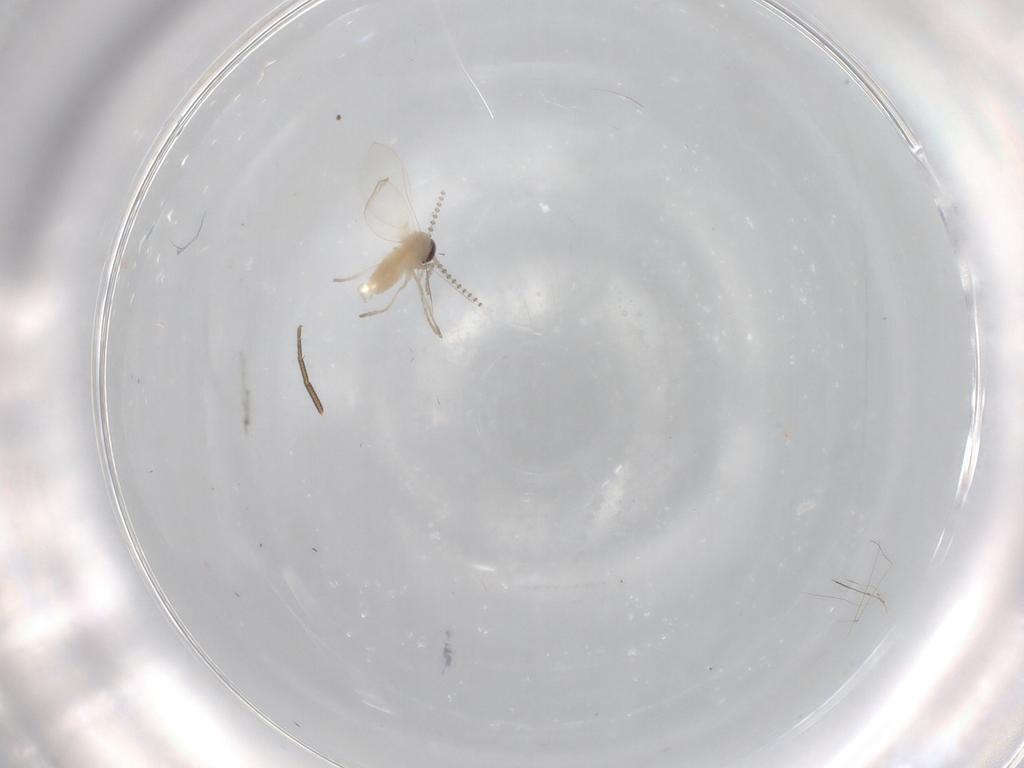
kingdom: Animalia
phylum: Arthropoda
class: Insecta
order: Diptera
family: Psychodidae
